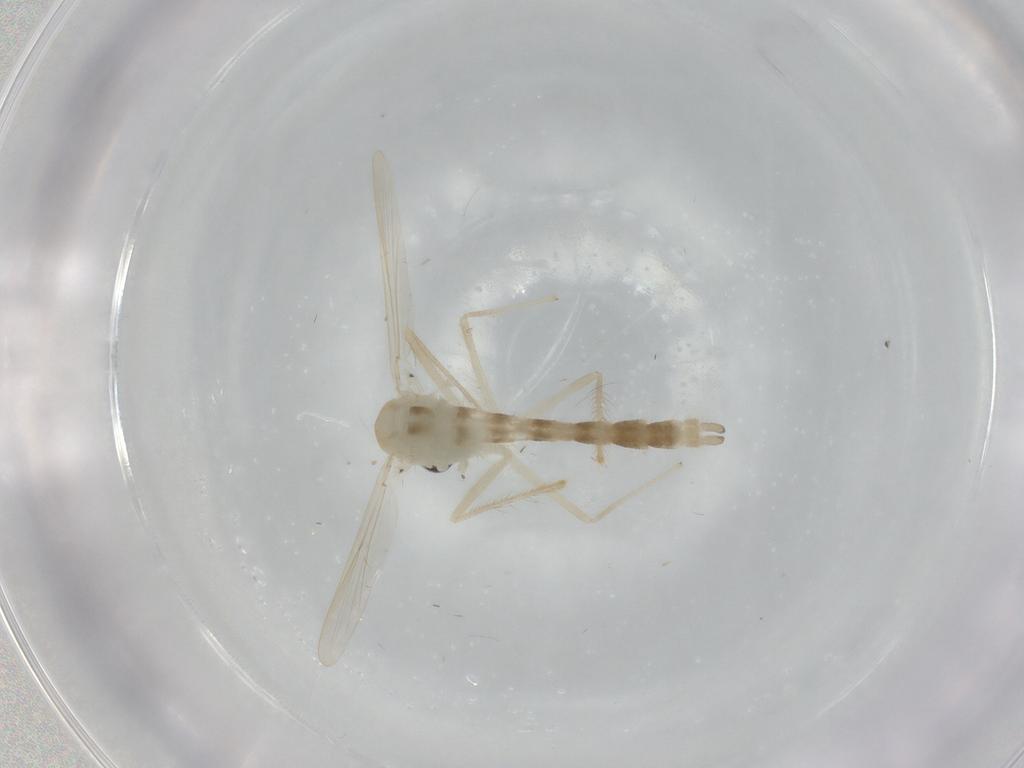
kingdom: Animalia
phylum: Arthropoda
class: Insecta
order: Diptera
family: Chironomidae
